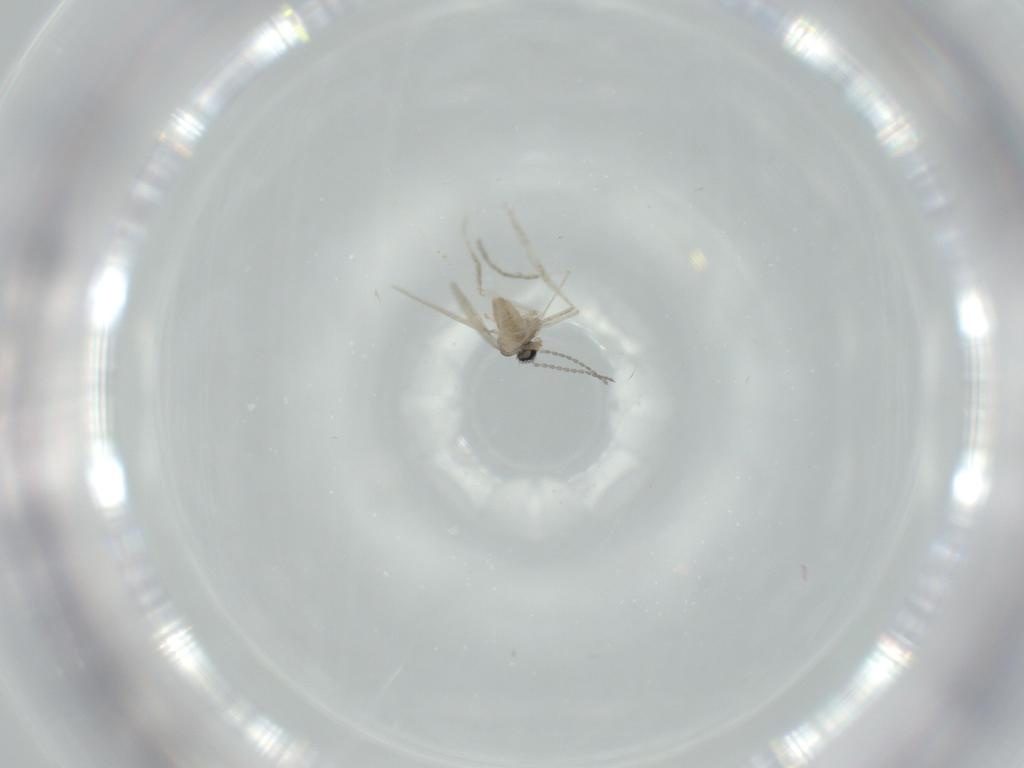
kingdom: Animalia
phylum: Arthropoda
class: Insecta
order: Diptera
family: Cecidomyiidae
